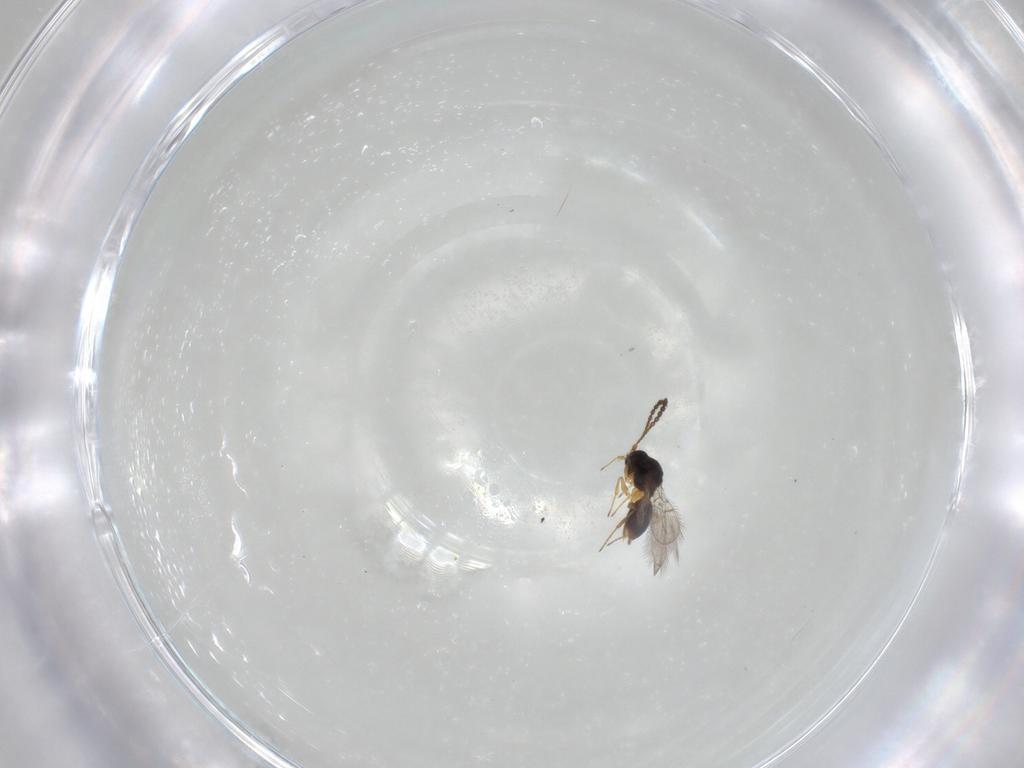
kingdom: Animalia
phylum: Arthropoda
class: Insecta
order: Hymenoptera
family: Figitidae
